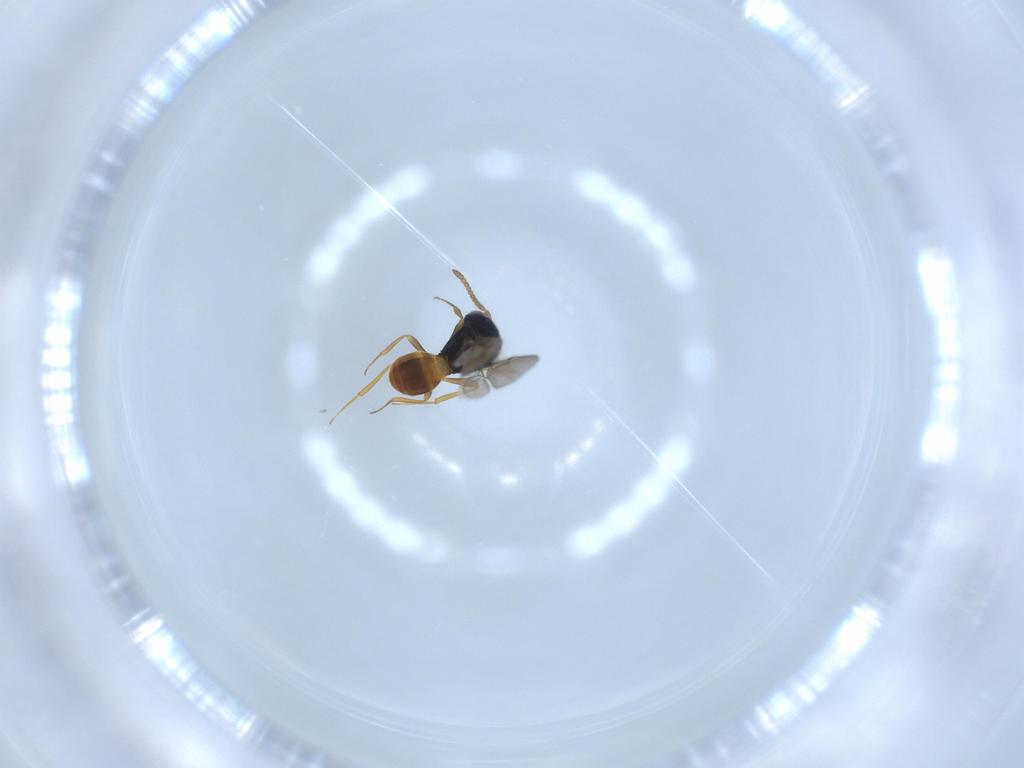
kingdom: Animalia
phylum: Arthropoda
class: Insecta
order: Hymenoptera
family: Scelionidae
